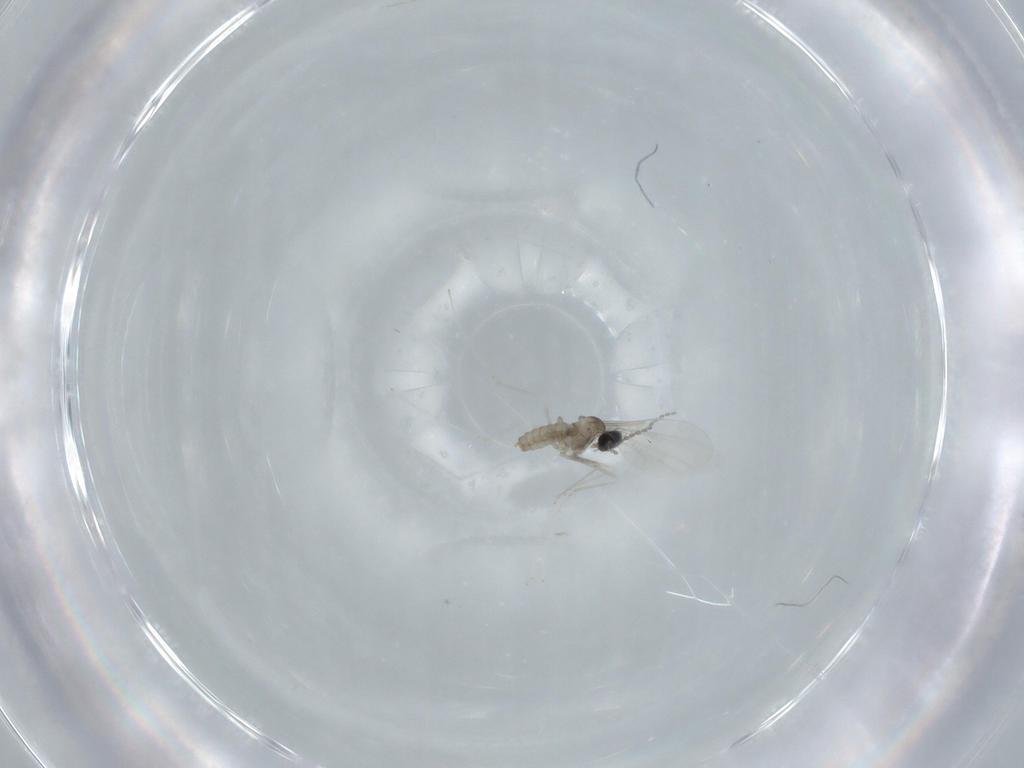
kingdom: Animalia
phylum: Arthropoda
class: Insecta
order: Diptera
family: Cecidomyiidae
